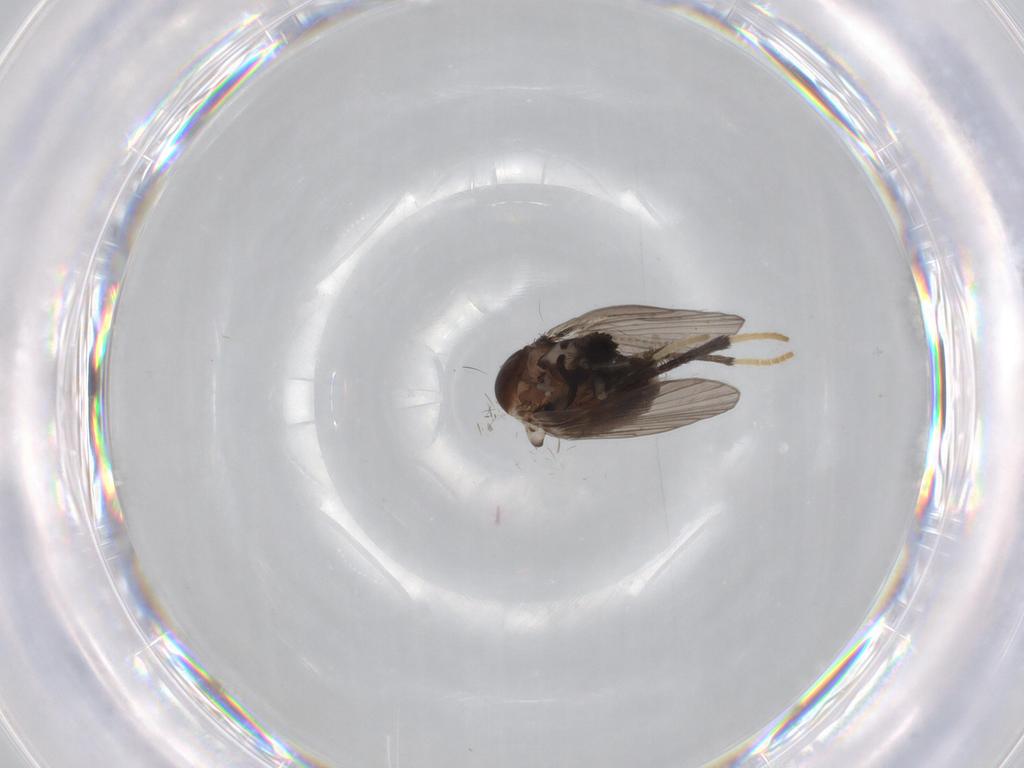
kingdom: Animalia
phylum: Arthropoda
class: Insecta
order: Diptera
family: Psychodidae
